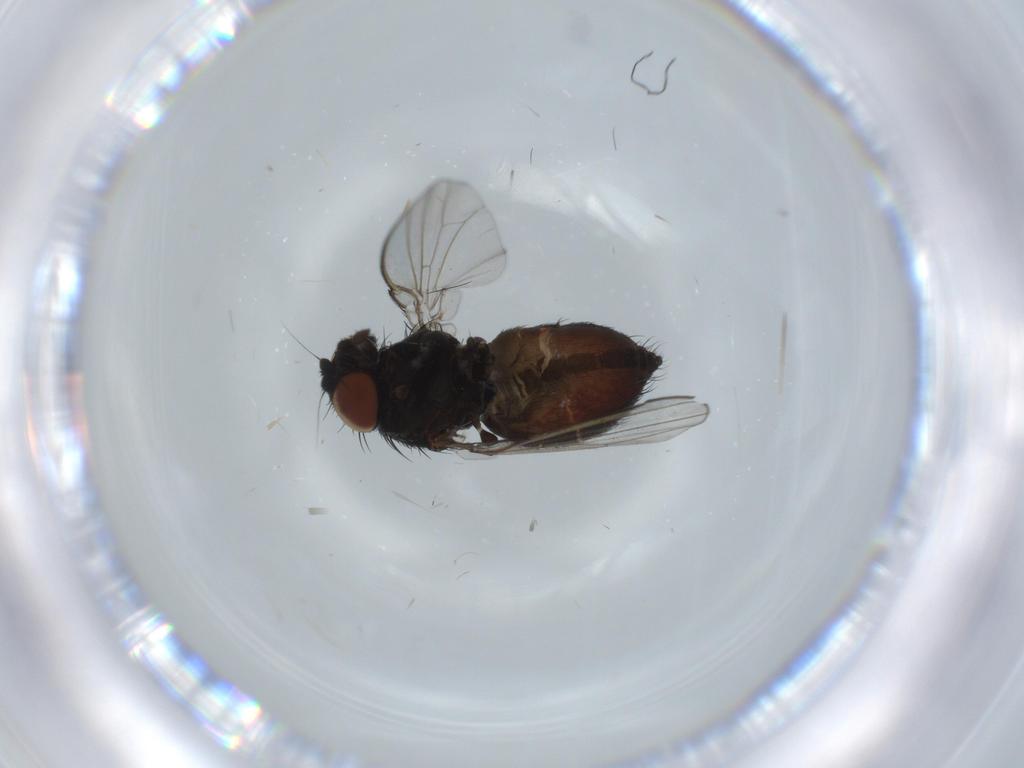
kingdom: Animalia
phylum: Arthropoda
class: Insecta
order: Diptera
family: Milichiidae
